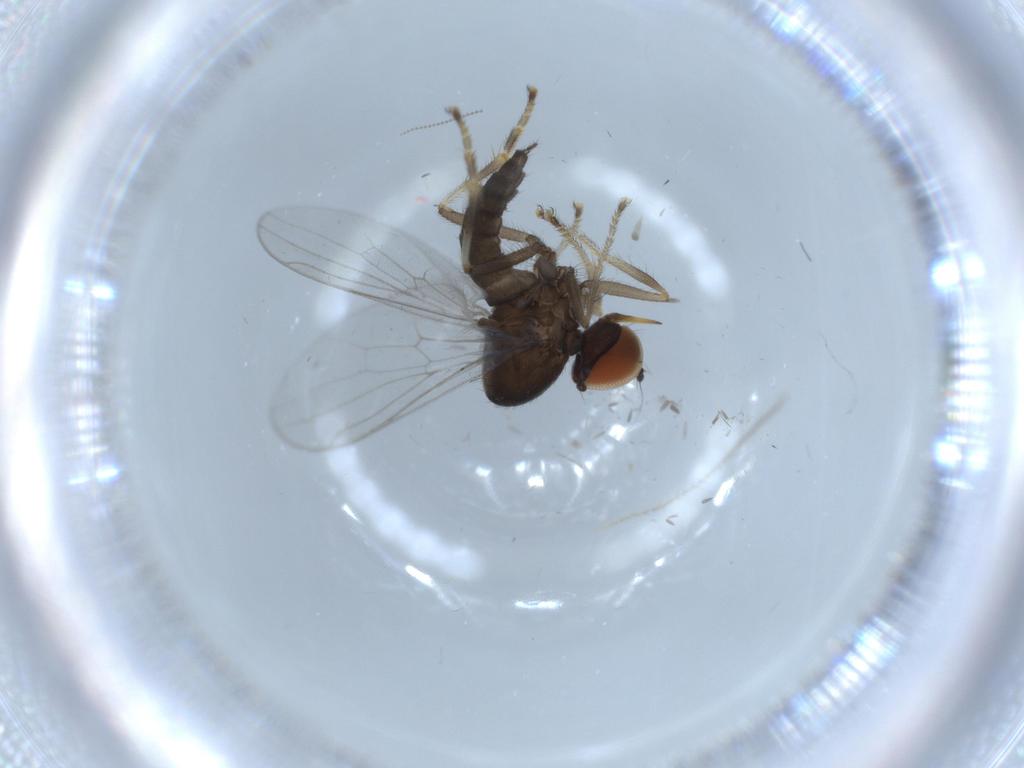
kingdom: Animalia
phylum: Arthropoda
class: Insecta
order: Diptera
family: Hybotidae
